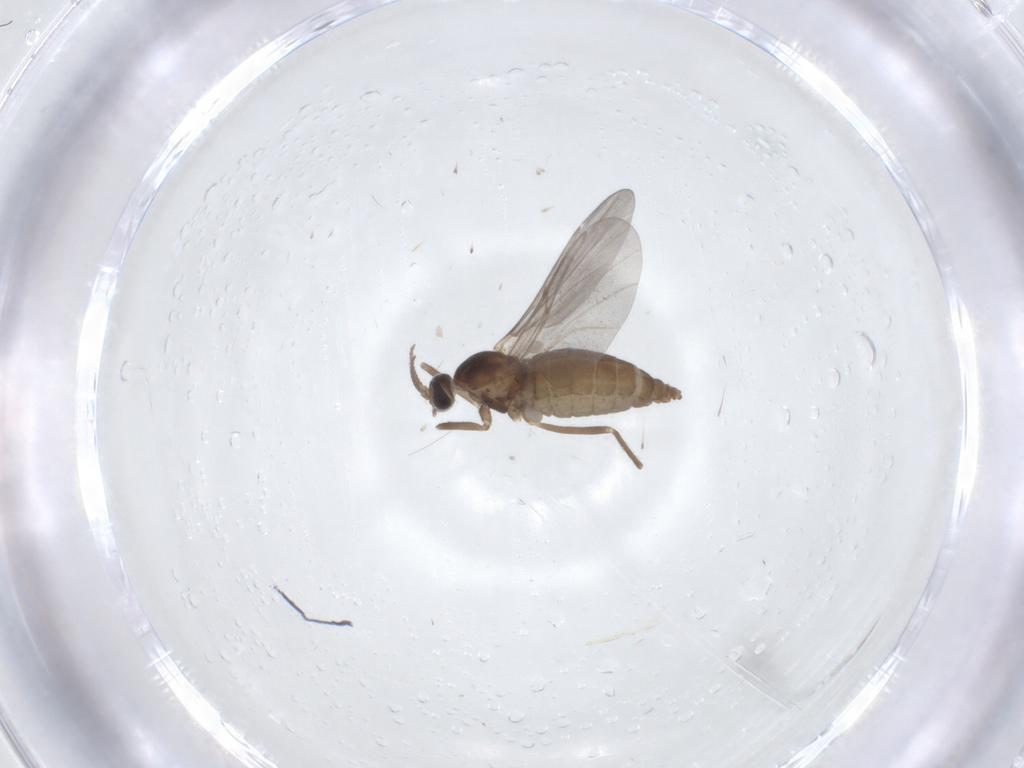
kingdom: Animalia
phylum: Arthropoda
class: Insecta
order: Diptera
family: Cecidomyiidae
